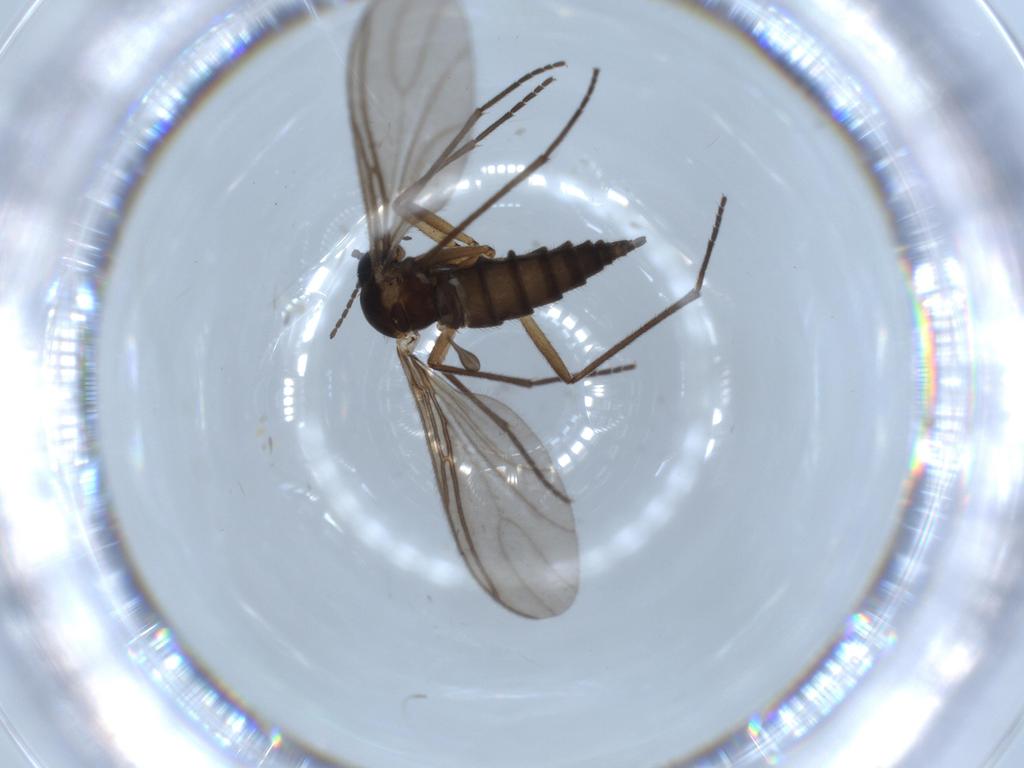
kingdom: Animalia
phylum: Arthropoda
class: Insecta
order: Diptera
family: Sciaridae
